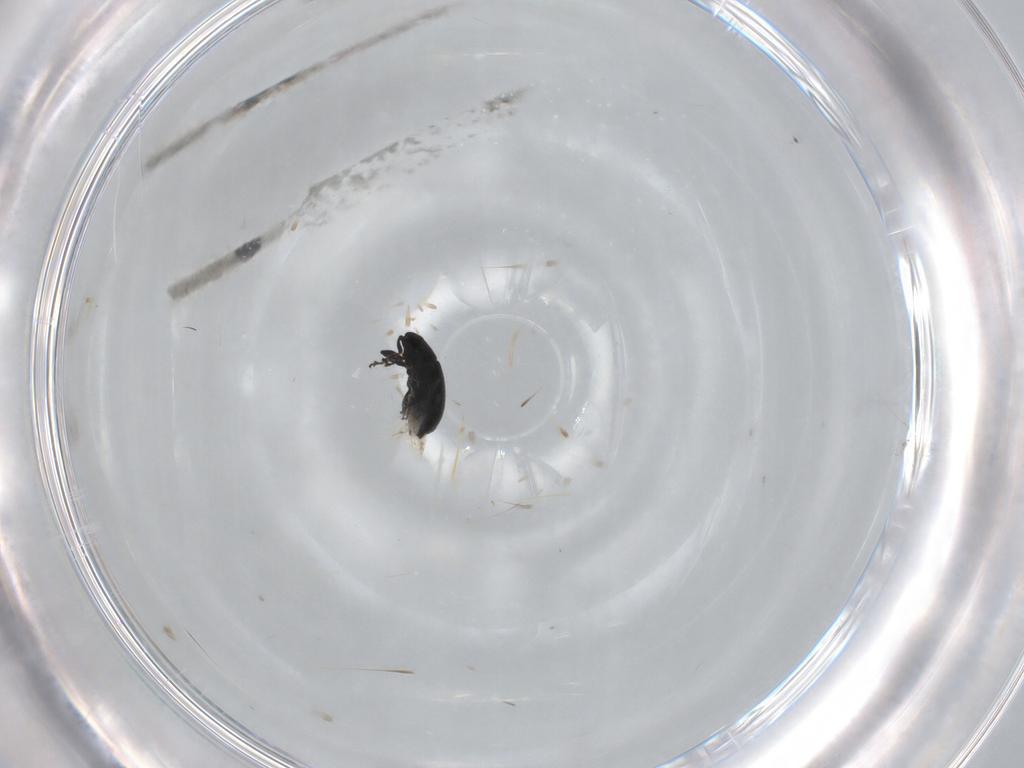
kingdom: Animalia
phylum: Arthropoda
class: Insecta
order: Coleoptera
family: Curculionidae
